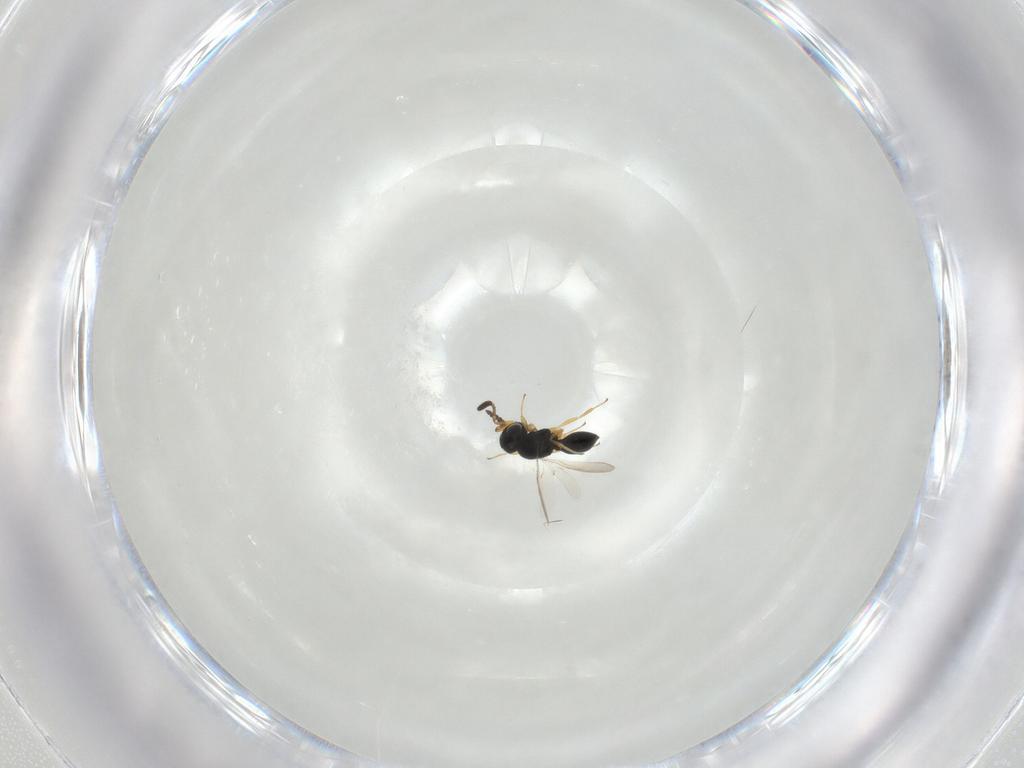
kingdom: Animalia
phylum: Arthropoda
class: Insecta
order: Hymenoptera
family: Scelionidae
